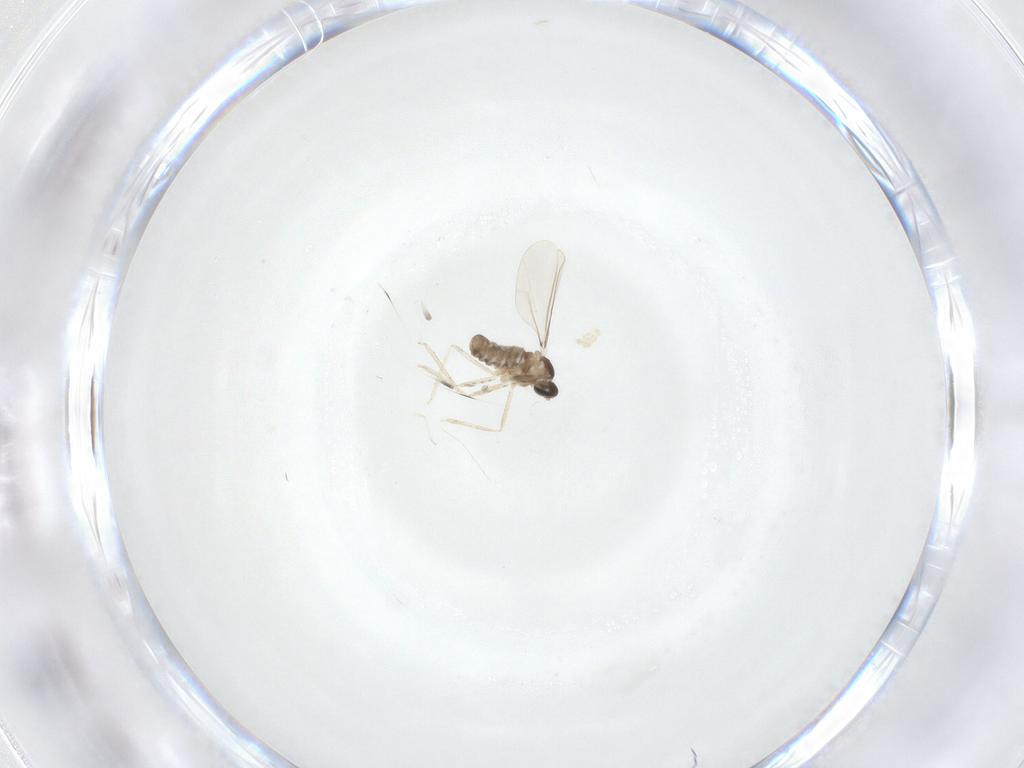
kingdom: Animalia
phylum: Arthropoda
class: Insecta
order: Diptera
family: Cecidomyiidae
